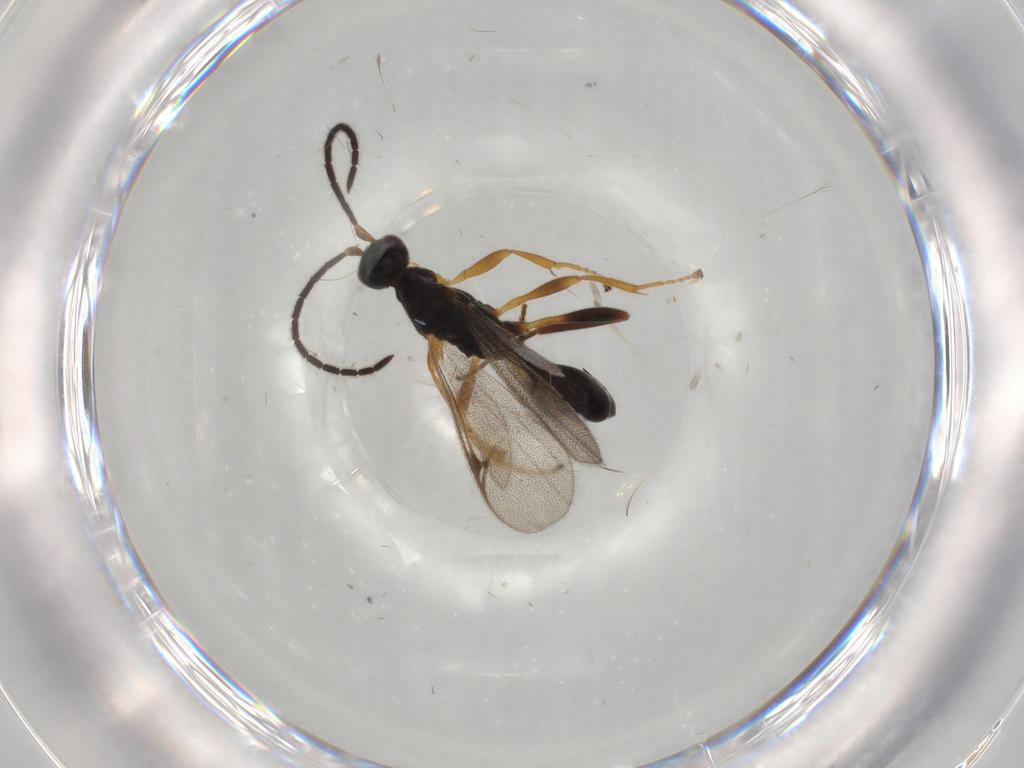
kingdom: Animalia
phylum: Arthropoda
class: Insecta
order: Hymenoptera
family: Proctotrupidae
